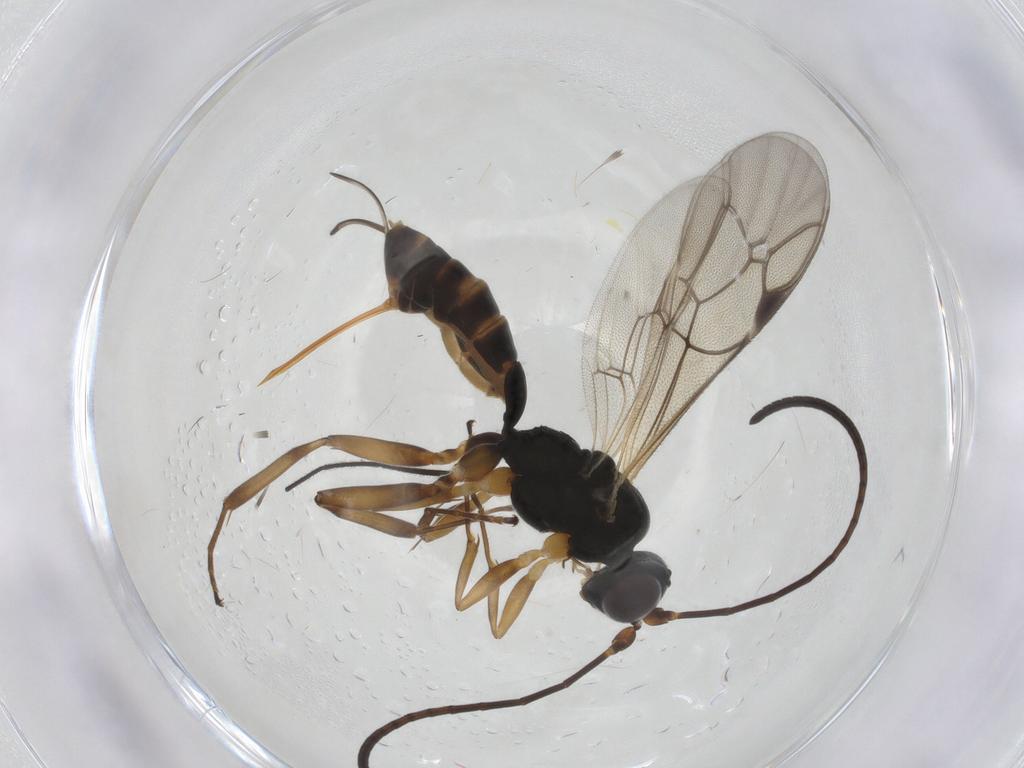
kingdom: Animalia
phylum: Arthropoda
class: Insecta
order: Hymenoptera
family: Ichneumonidae
